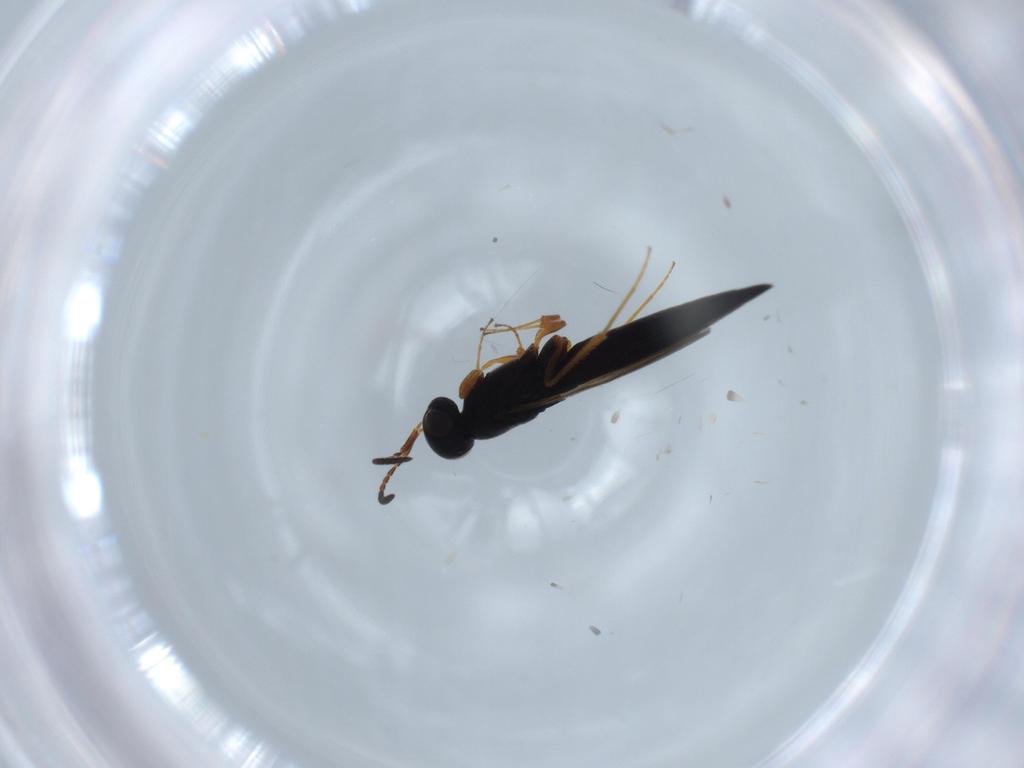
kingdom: Animalia
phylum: Arthropoda
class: Insecta
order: Hymenoptera
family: Scelionidae
